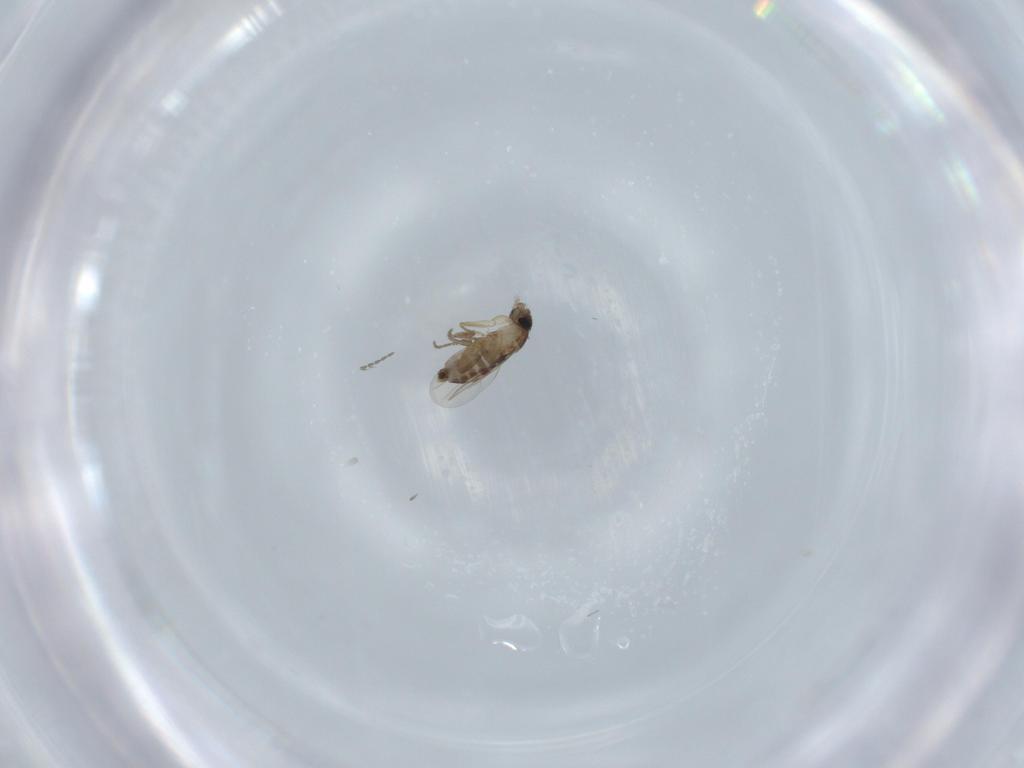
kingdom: Animalia
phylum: Arthropoda
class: Insecta
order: Diptera
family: Phoridae
